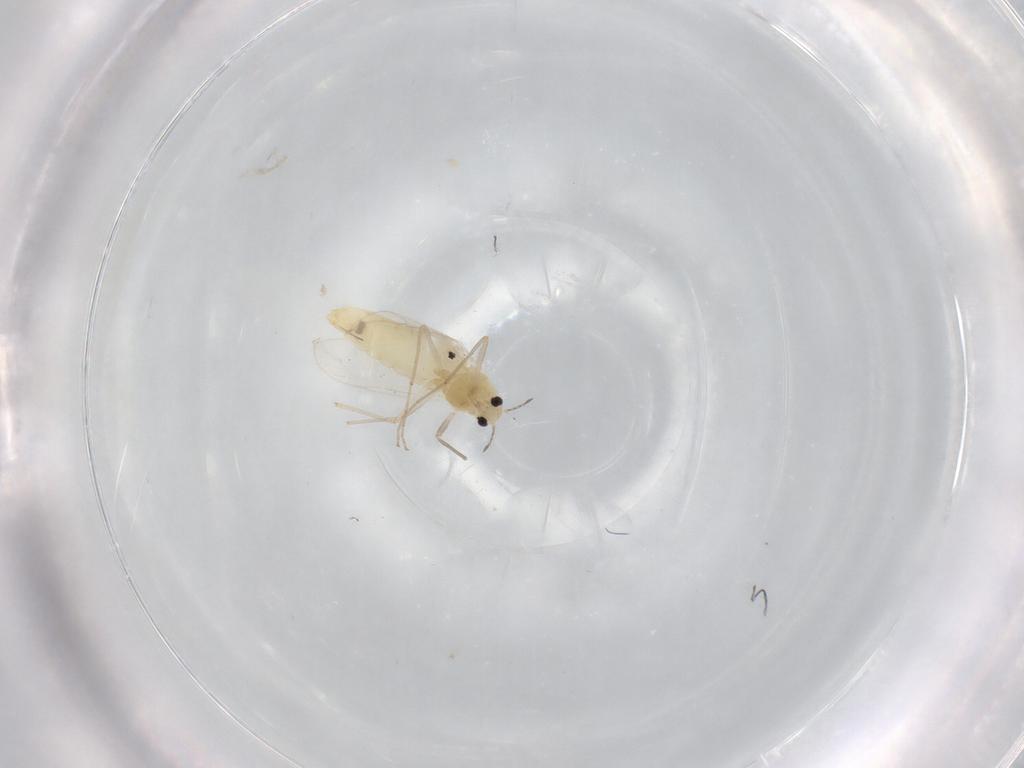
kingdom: Animalia
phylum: Arthropoda
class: Insecta
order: Diptera
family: Chironomidae
